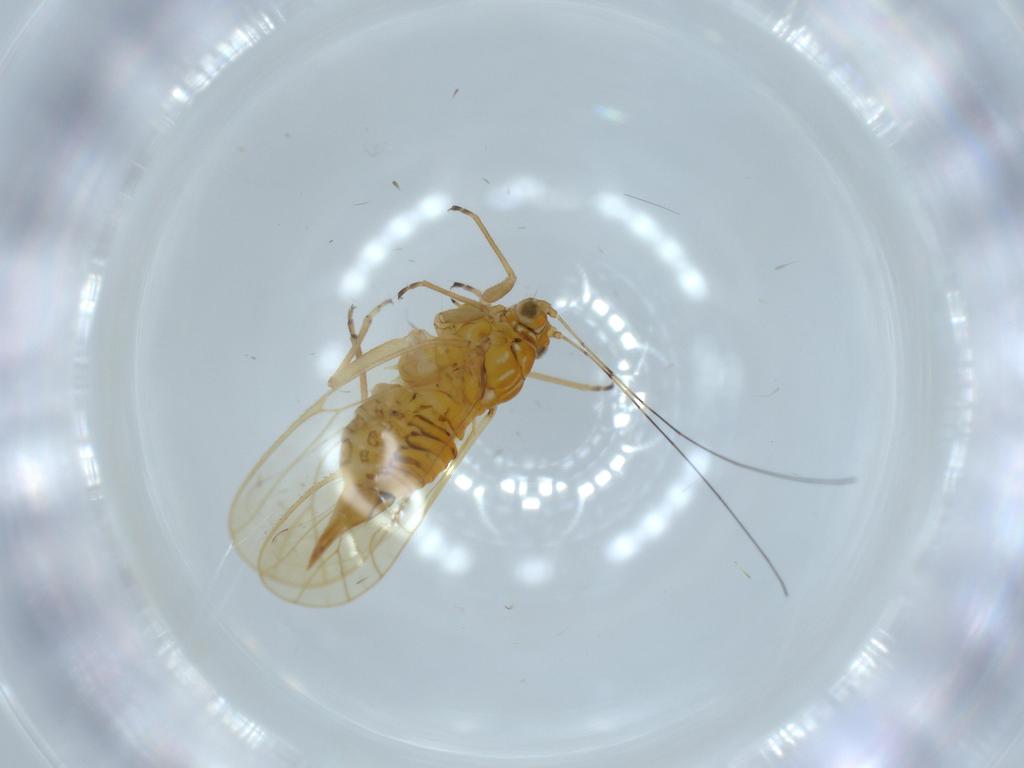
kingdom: Animalia
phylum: Arthropoda
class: Insecta
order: Hemiptera
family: Psyllidae
